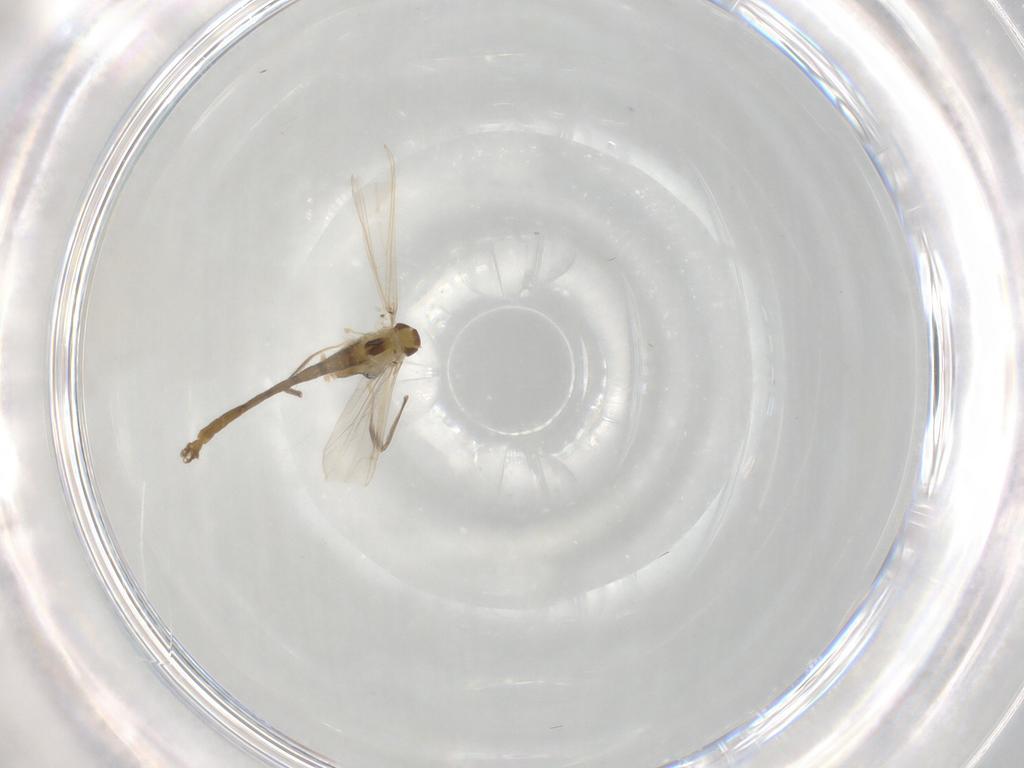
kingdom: Animalia
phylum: Arthropoda
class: Insecta
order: Diptera
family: Chironomidae
